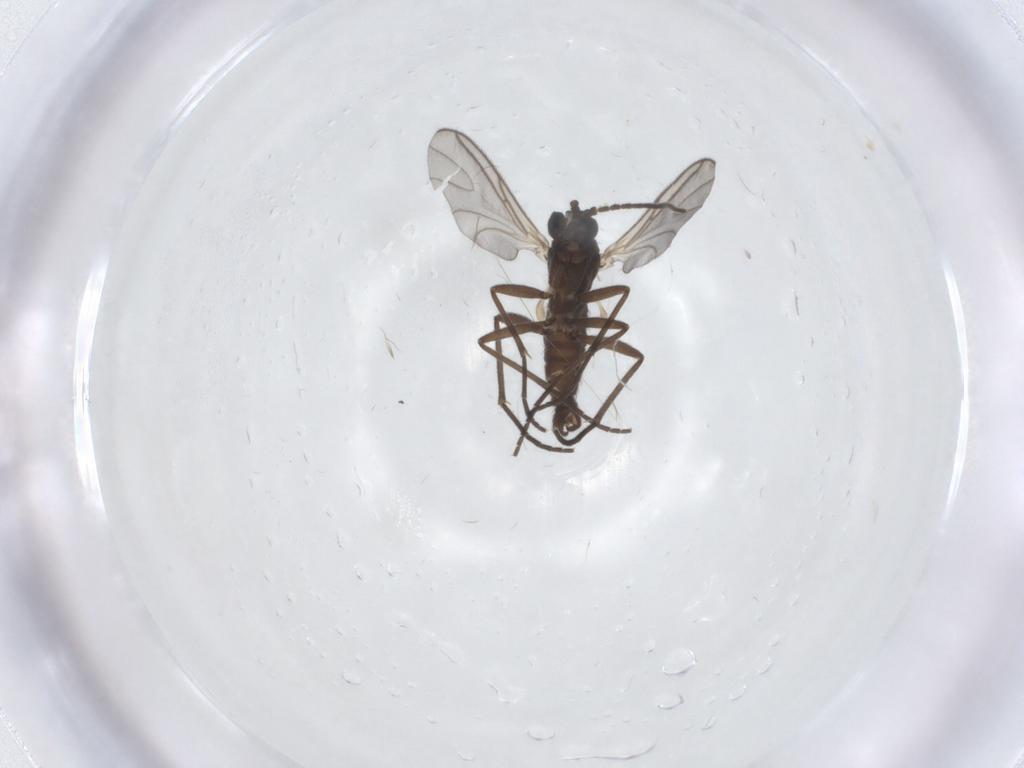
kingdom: Animalia
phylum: Arthropoda
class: Insecta
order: Diptera
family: Sciaridae
